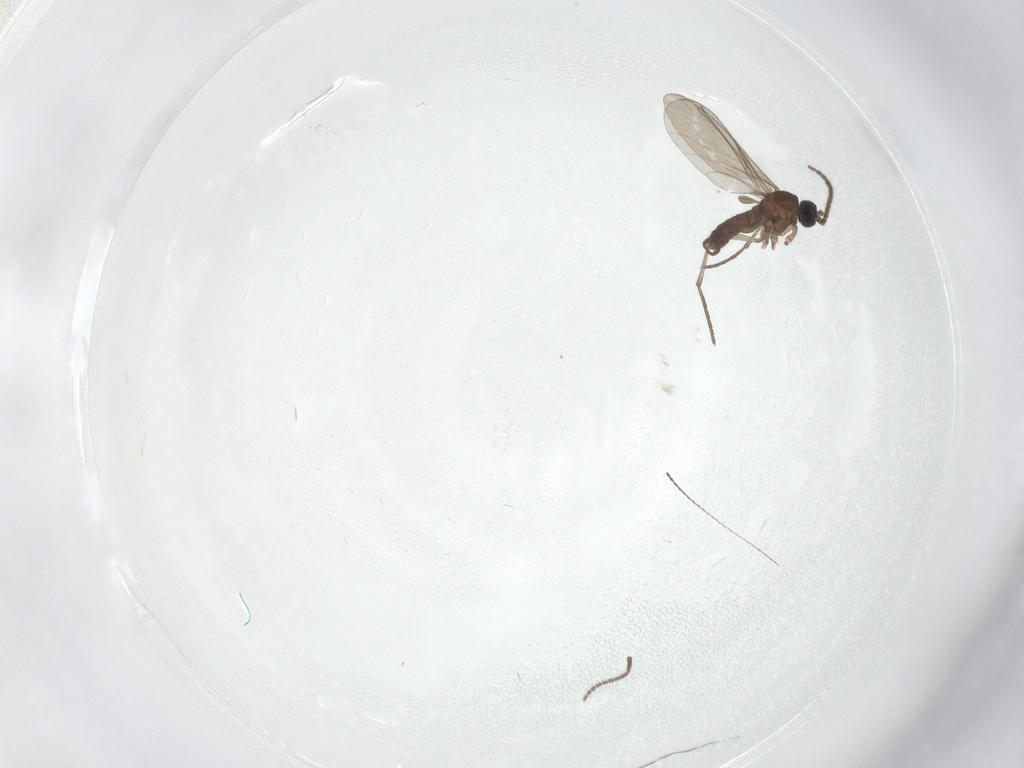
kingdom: Animalia
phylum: Arthropoda
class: Insecta
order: Diptera
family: Sciaridae
